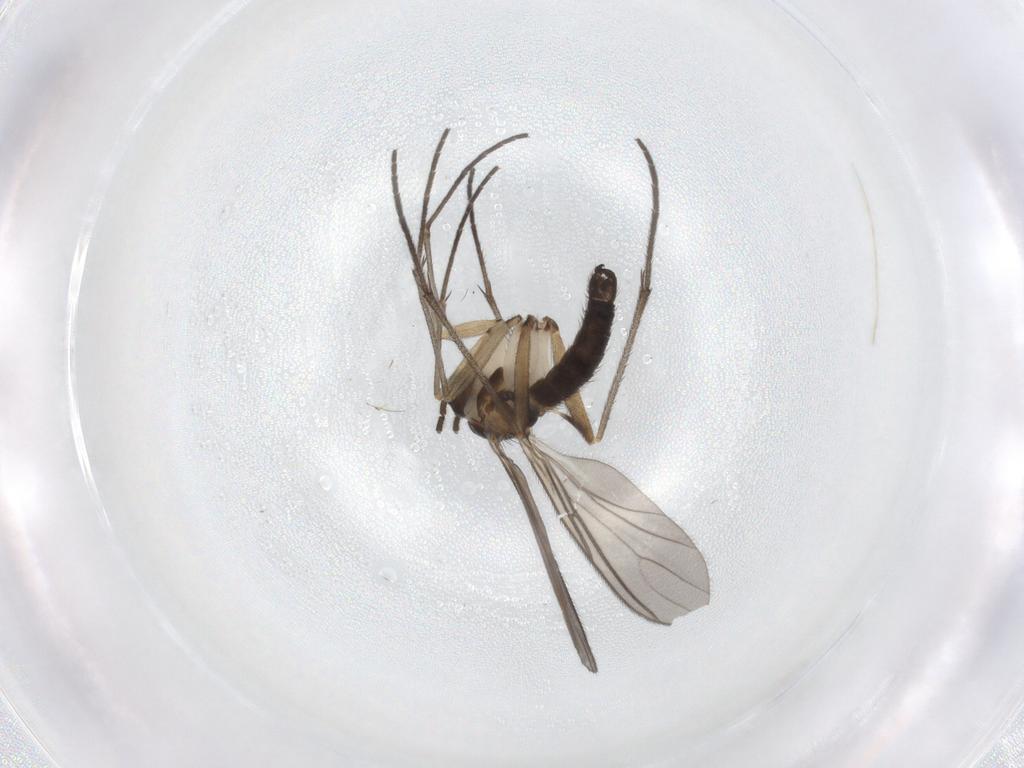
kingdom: Animalia
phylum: Arthropoda
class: Insecta
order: Diptera
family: Sciaridae
